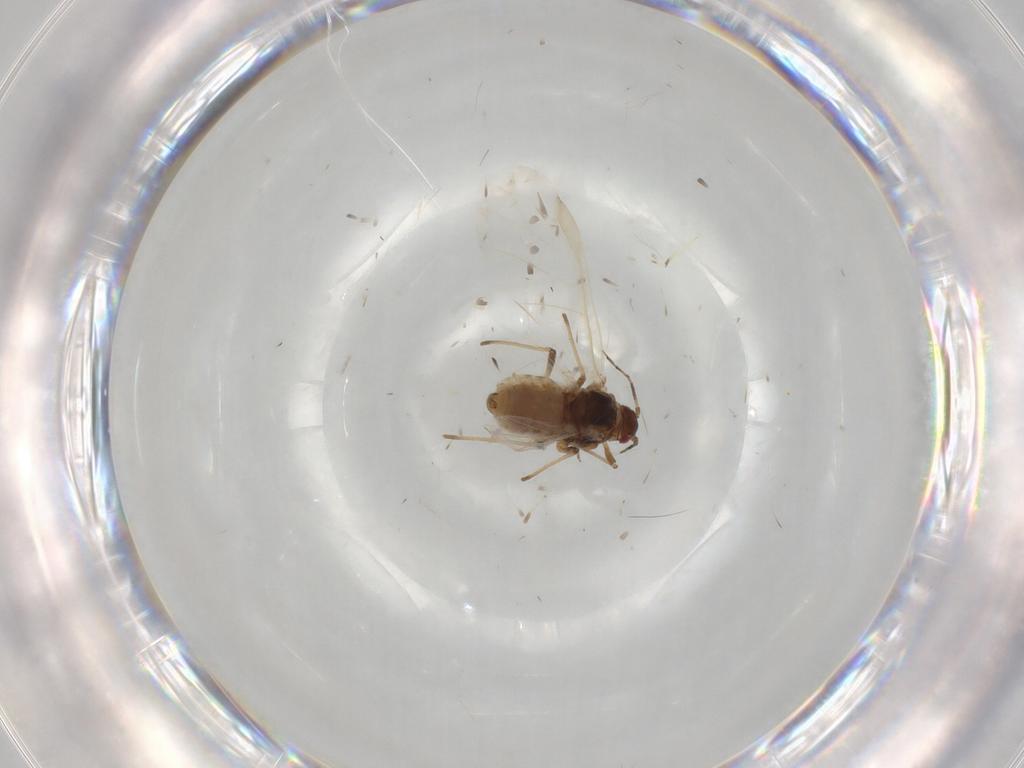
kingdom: Animalia
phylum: Arthropoda
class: Insecta
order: Hemiptera
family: Aphididae
